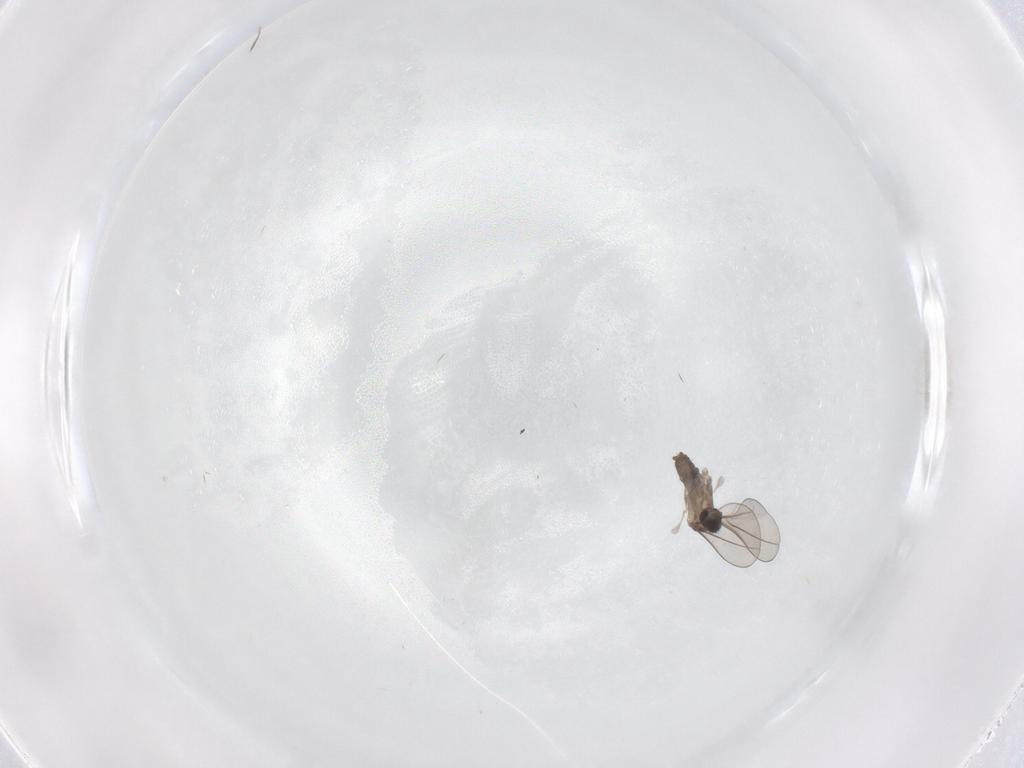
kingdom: Animalia
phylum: Arthropoda
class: Insecta
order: Diptera
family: Cecidomyiidae
